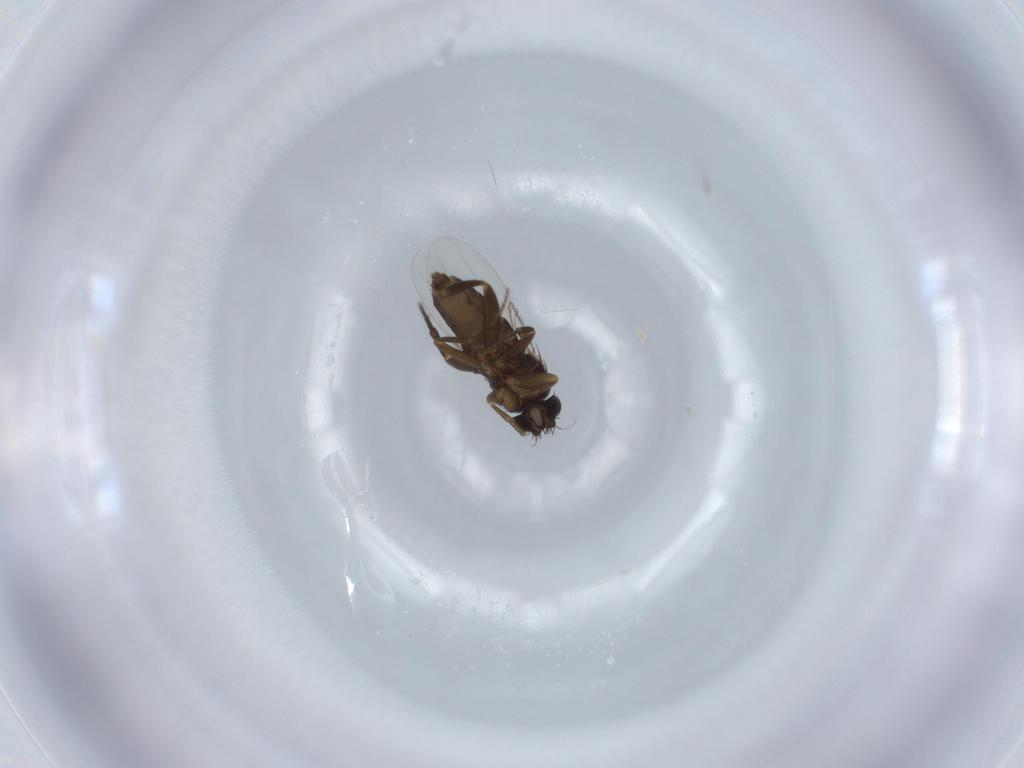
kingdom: Animalia
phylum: Arthropoda
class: Insecta
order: Diptera
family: Phoridae
